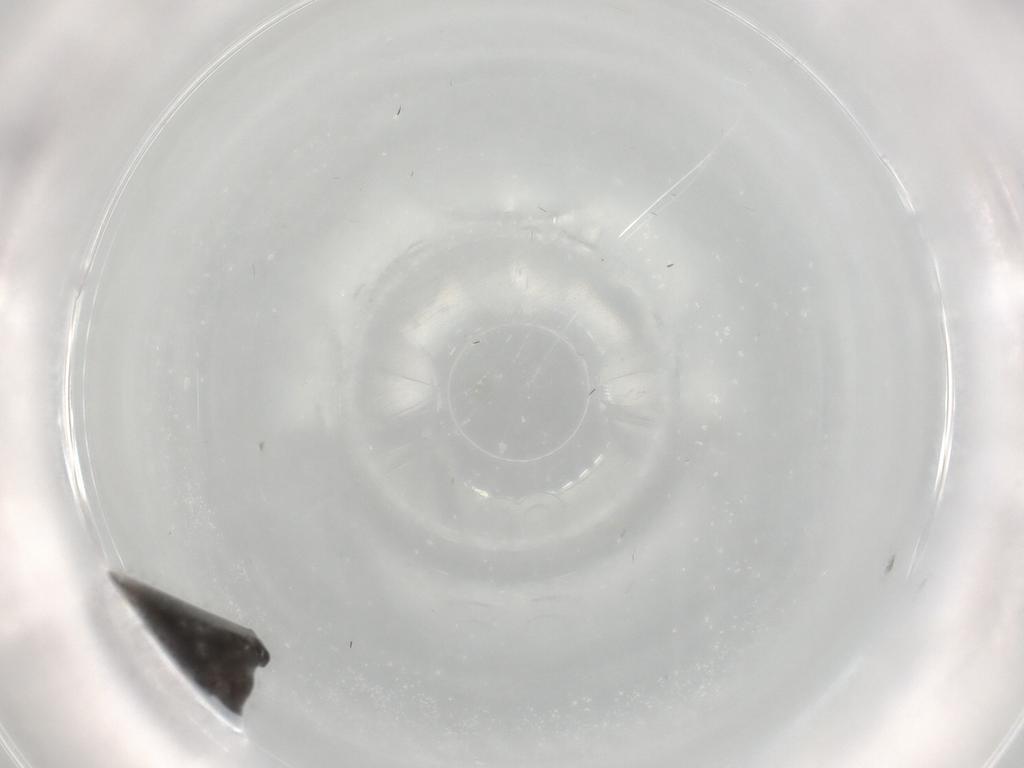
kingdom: Animalia
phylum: Arthropoda
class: Insecta
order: Diptera
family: Psychodidae
